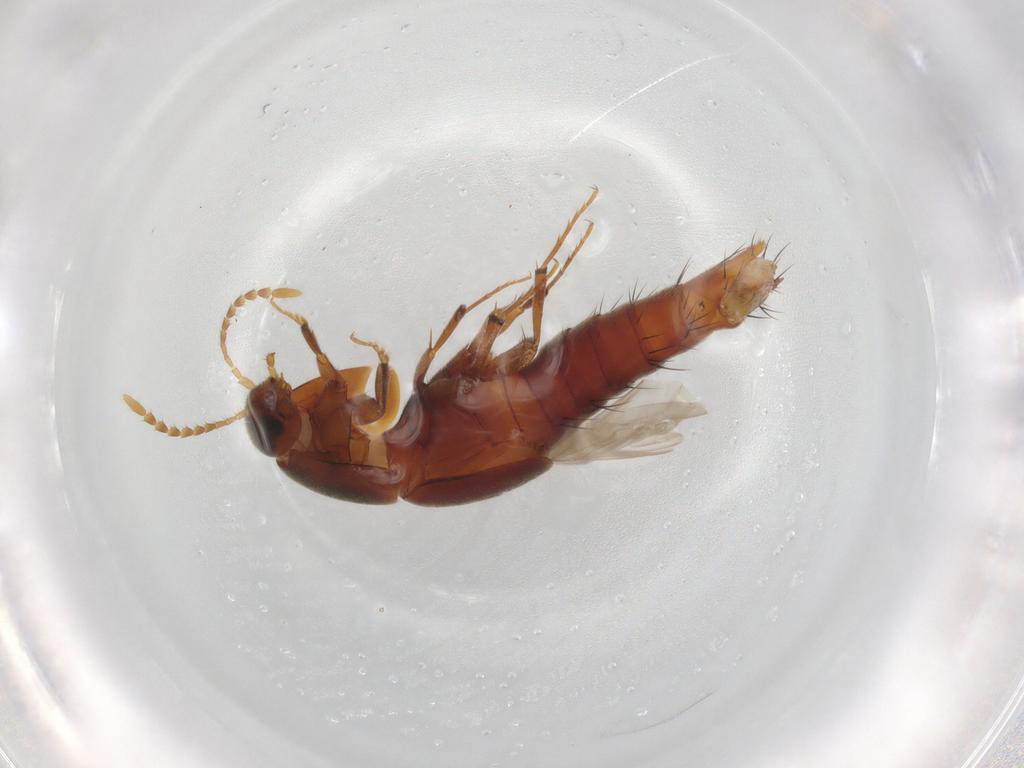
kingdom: Animalia
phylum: Arthropoda
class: Insecta
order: Coleoptera
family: Staphylinidae
